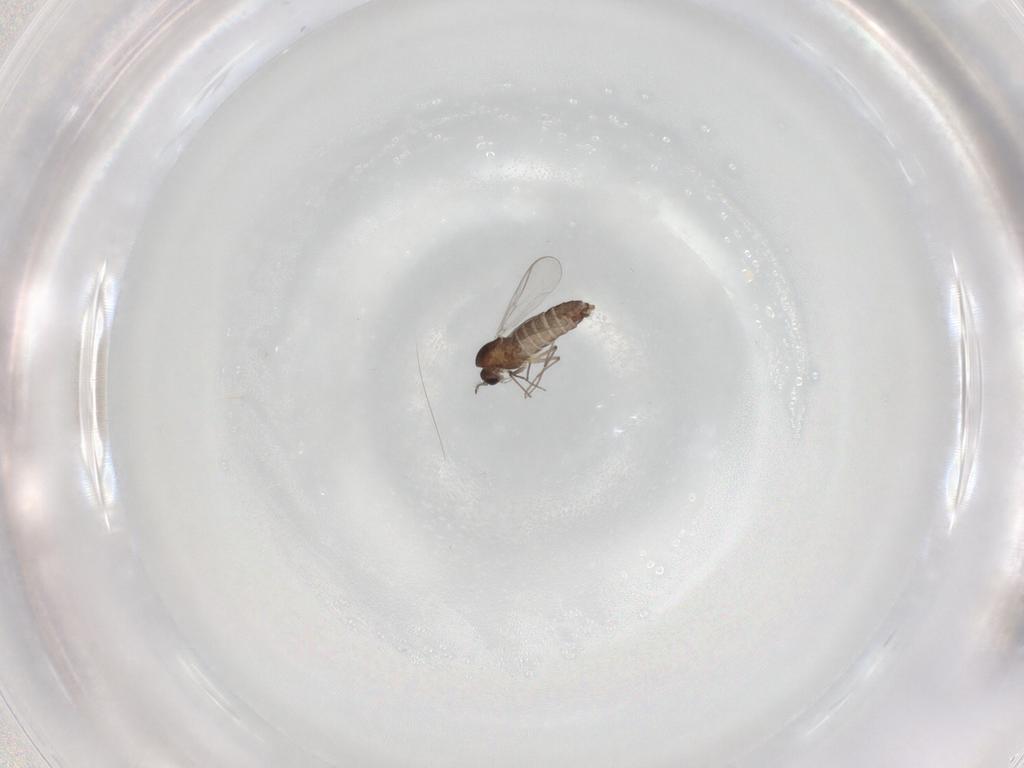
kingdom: Animalia
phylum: Arthropoda
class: Insecta
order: Diptera
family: Chironomidae
